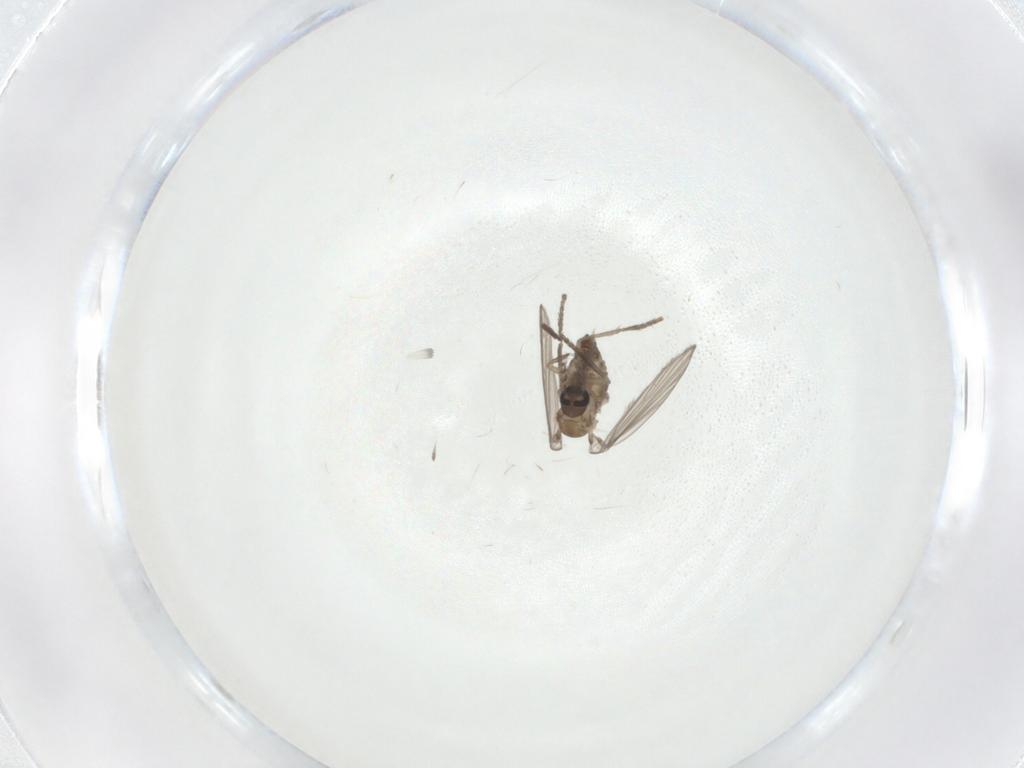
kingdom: Animalia
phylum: Arthropoda
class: Insecta
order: Diptera
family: Psychodidae
